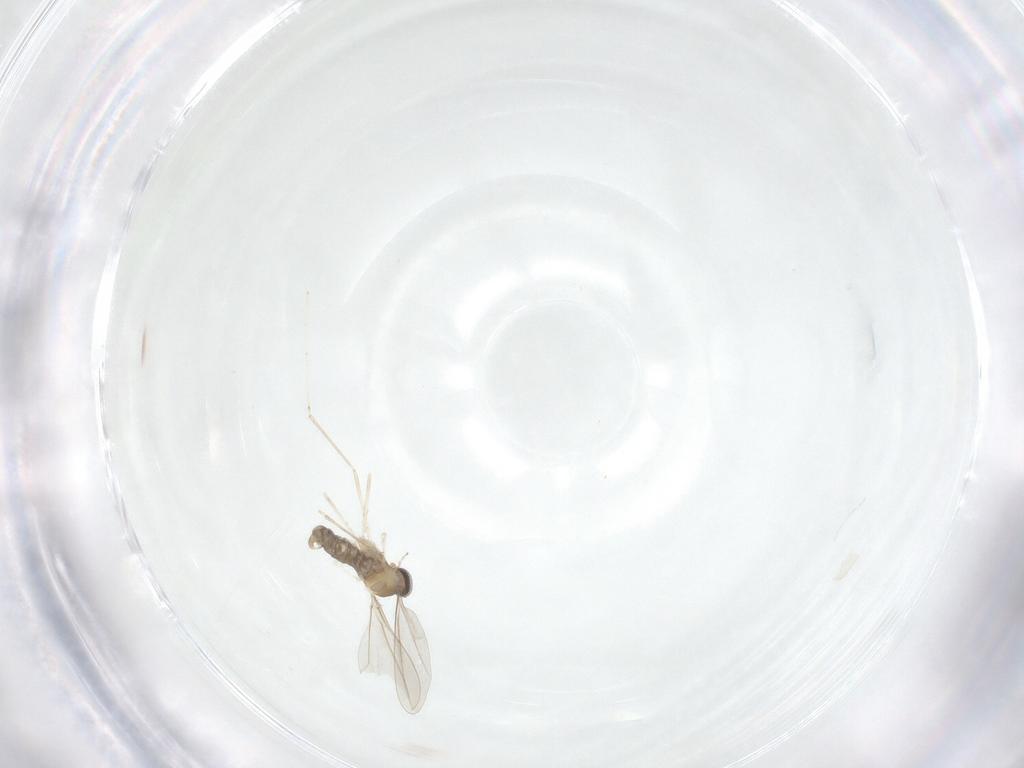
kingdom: Animalia
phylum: Arthropoda
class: Insecta
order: Diptera
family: Cecidomyiidae
